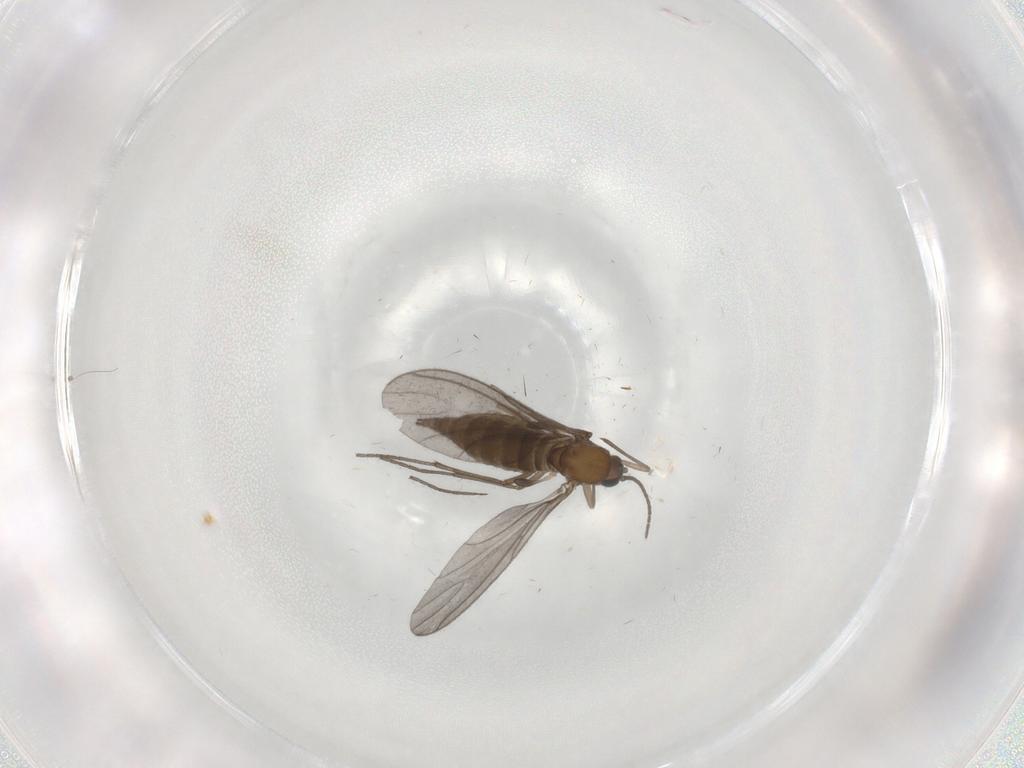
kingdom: Animalia
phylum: Arthropoda
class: Insecta
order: Diptera
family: Sciaridae
